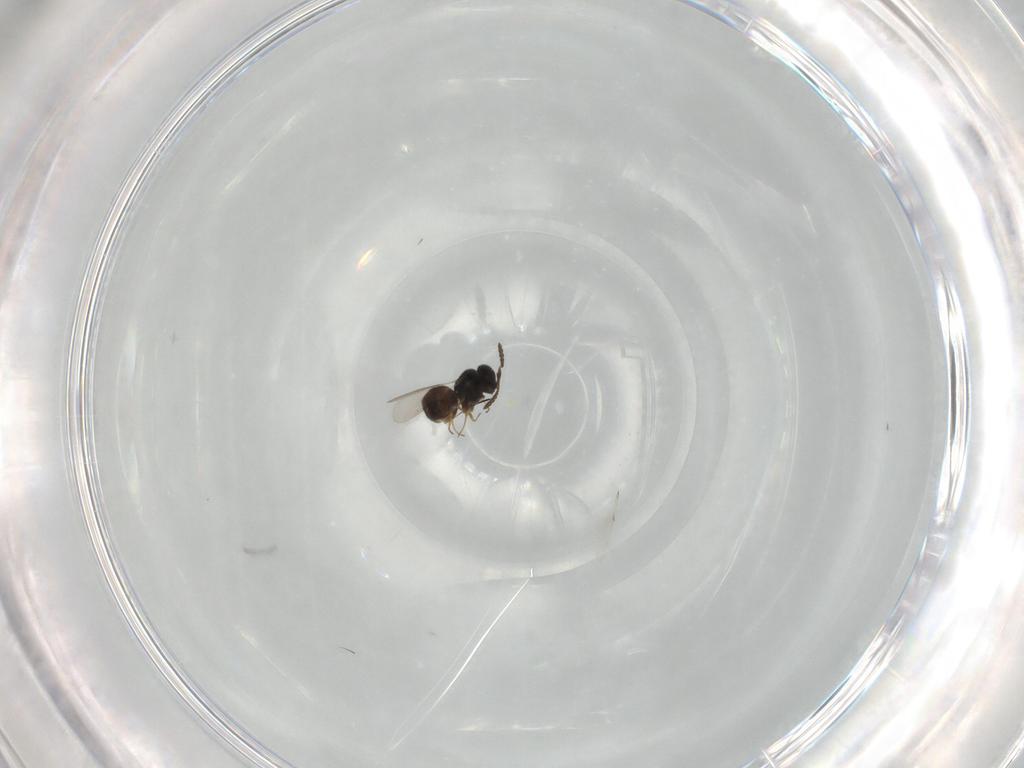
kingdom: Animalia
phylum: Arthropoda
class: Insecta
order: Hymenoptera
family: Scelionidae
